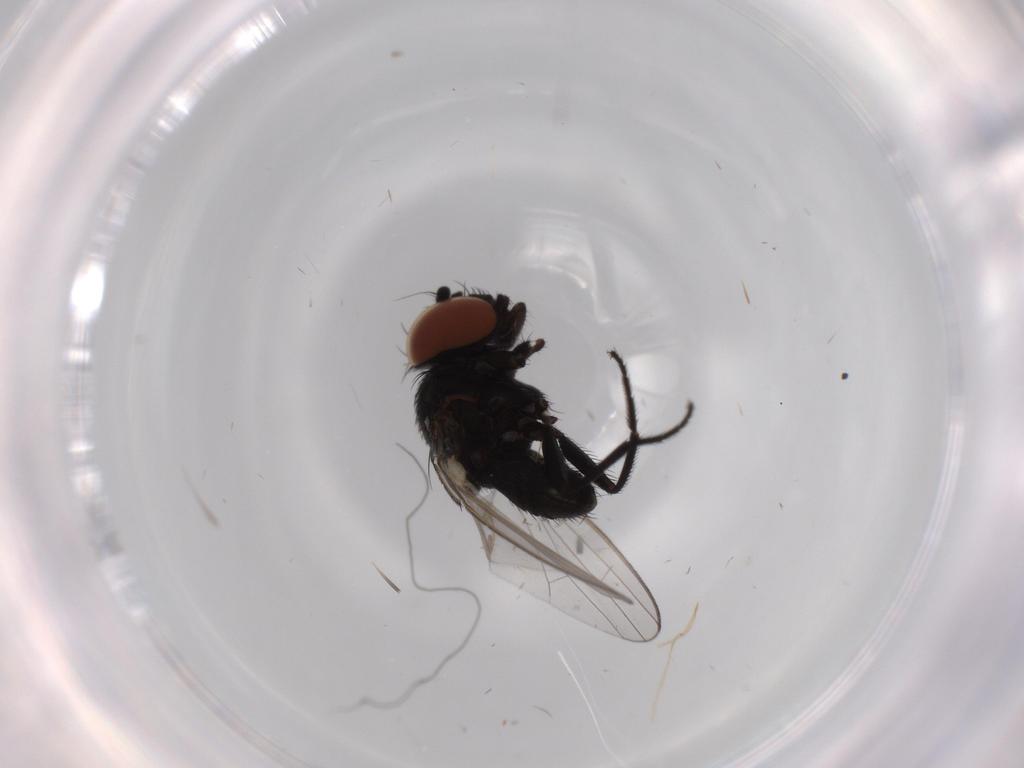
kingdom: Animalia
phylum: Arthropoda
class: Insecta
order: Diptera
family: Milichiidae
